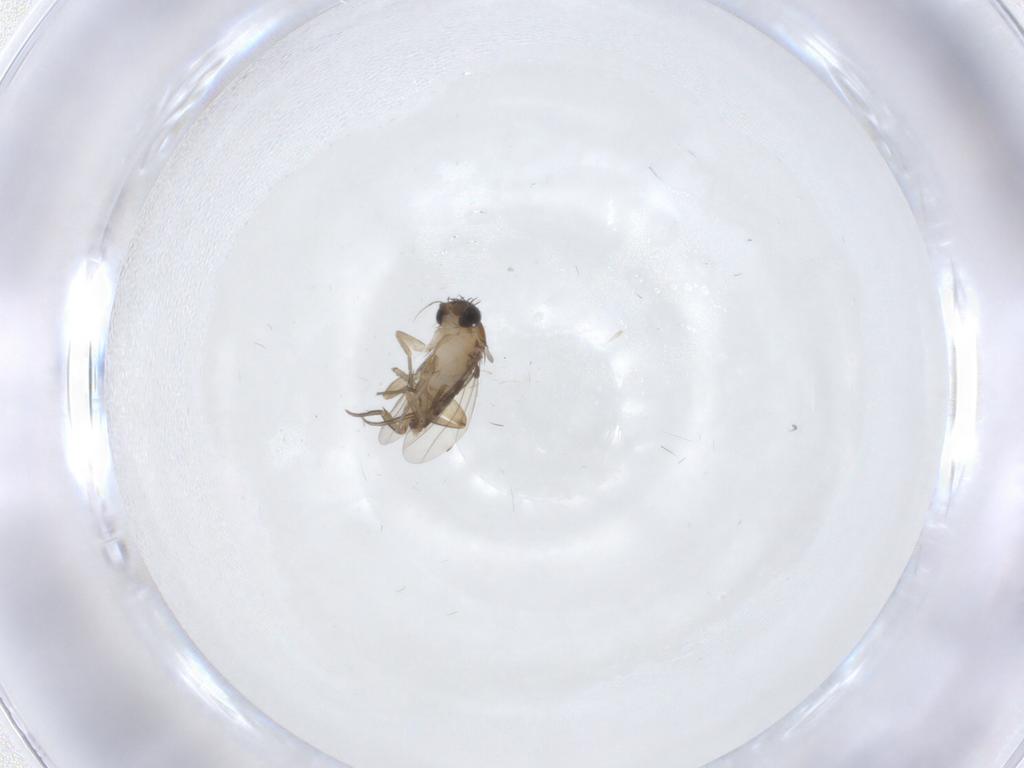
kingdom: Animalia
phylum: Arthropoda
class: Insecta
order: Diptera
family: Phoridae
